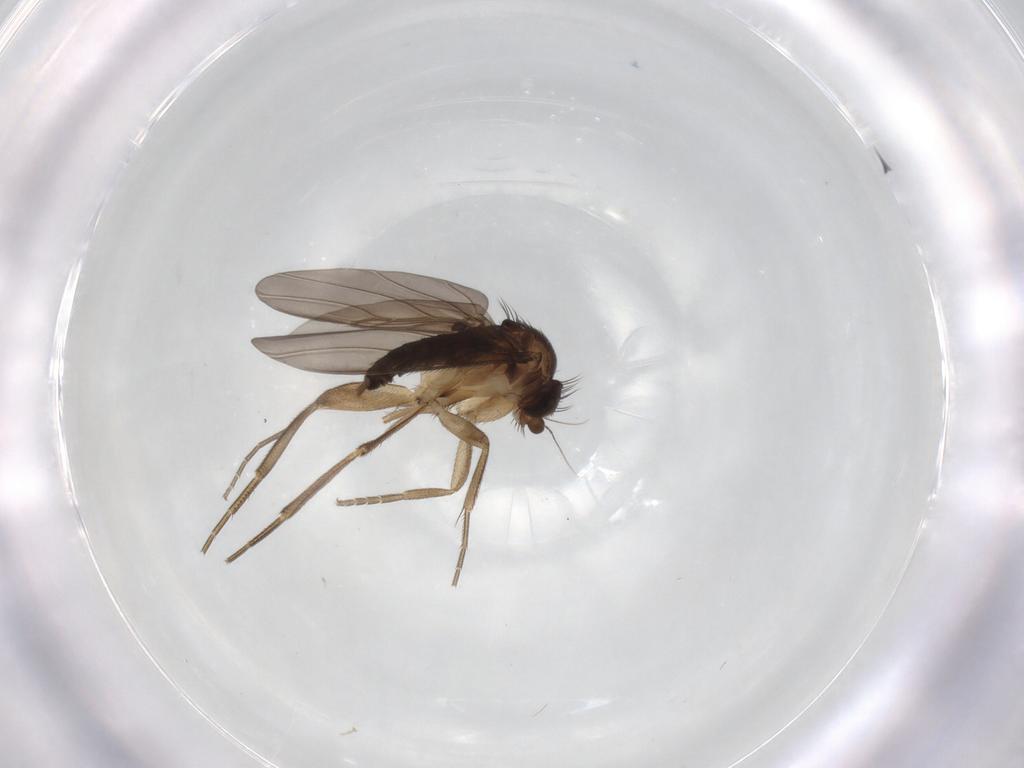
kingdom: Animalia
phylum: Arthropoda
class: Insecta
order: Diptera
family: Phoridae
